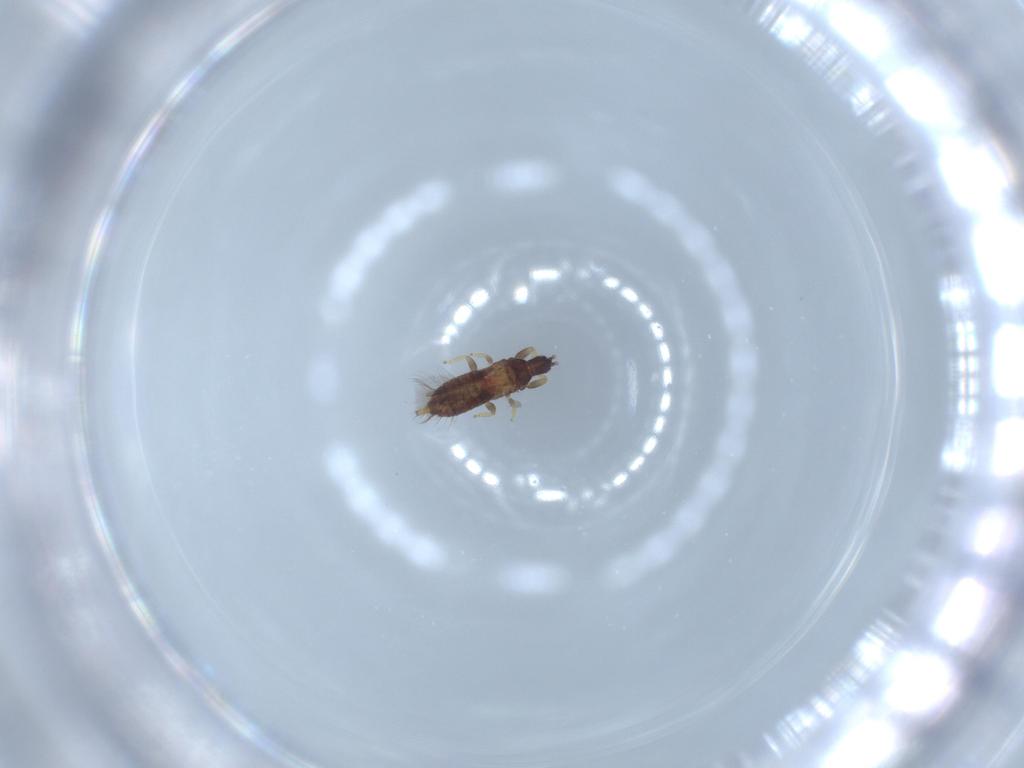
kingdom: Animalia
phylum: Arthropoda
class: Insecta
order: Thysanoptera
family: Phlaeothripidae
